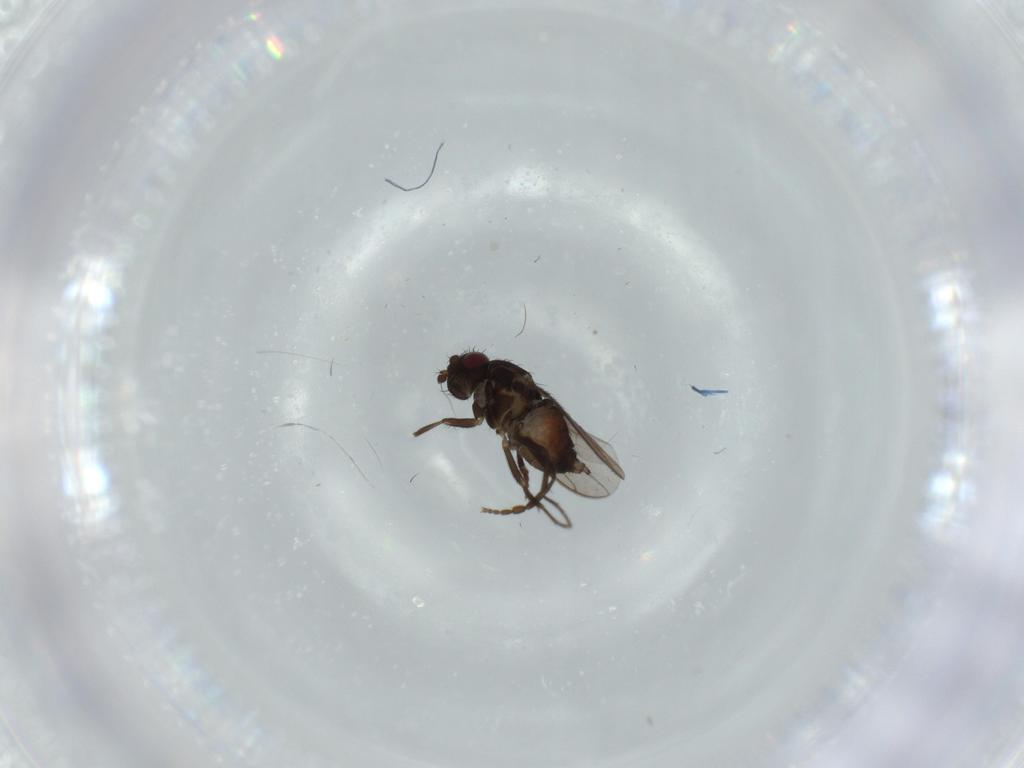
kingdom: Animalia
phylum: Arthropoda
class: Insecta
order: Diptera
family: Sphaeroceridae
